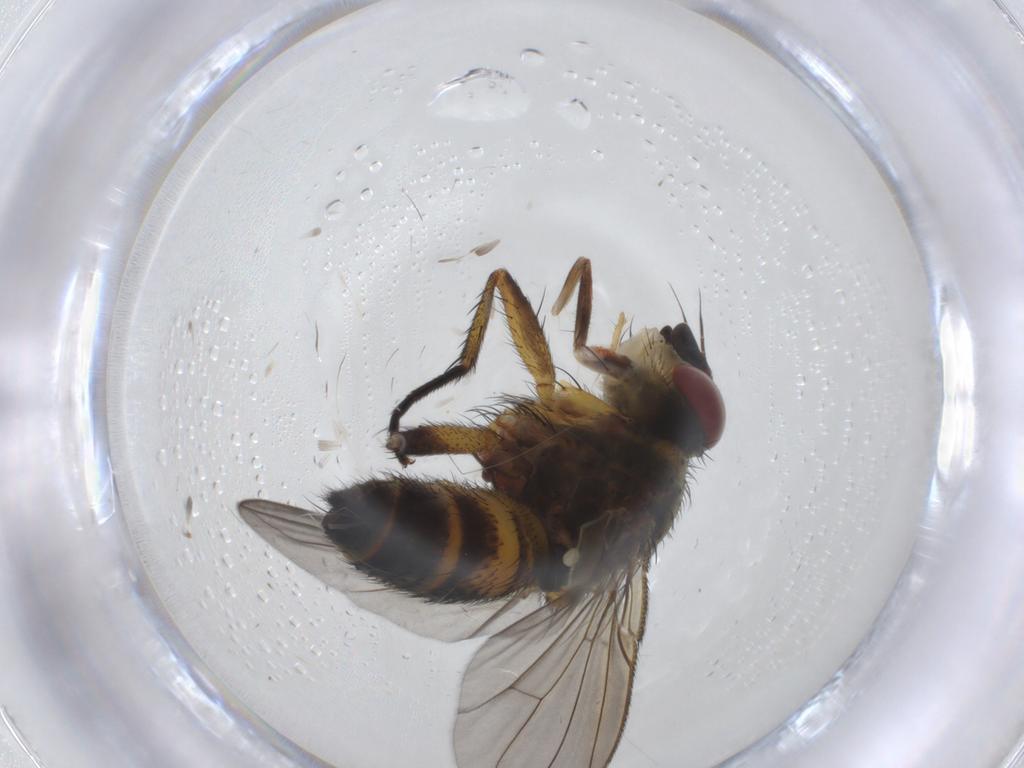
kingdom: Animalia
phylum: Arthropoda
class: Insecta
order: Diptera
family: Tachinidae
